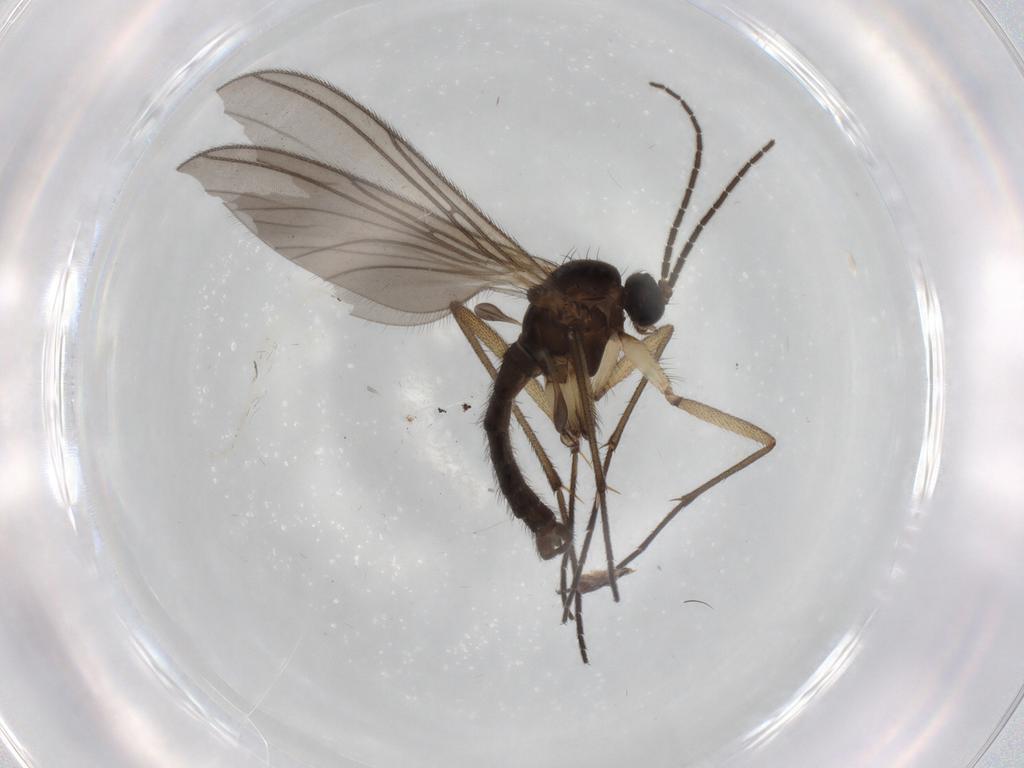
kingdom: Animalia
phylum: Arthropoda
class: Insecta
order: Diptera
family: Sciaridae
